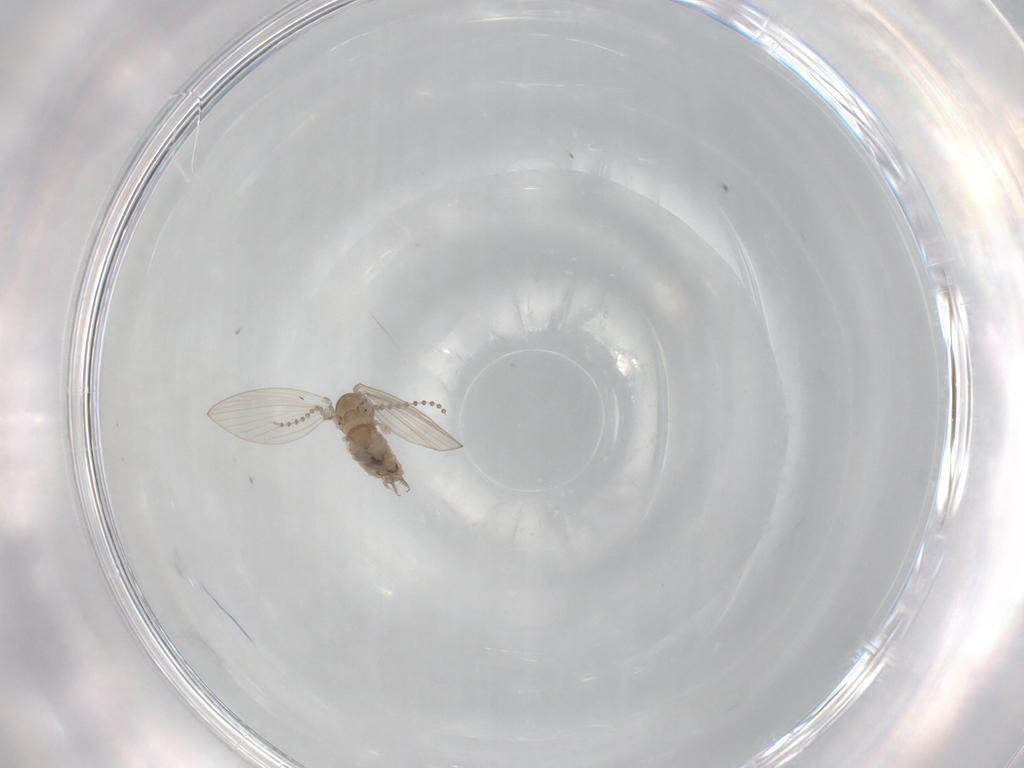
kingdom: Animalia
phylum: Arthropoda
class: Insecta
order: Diptera
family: Psychodidae
